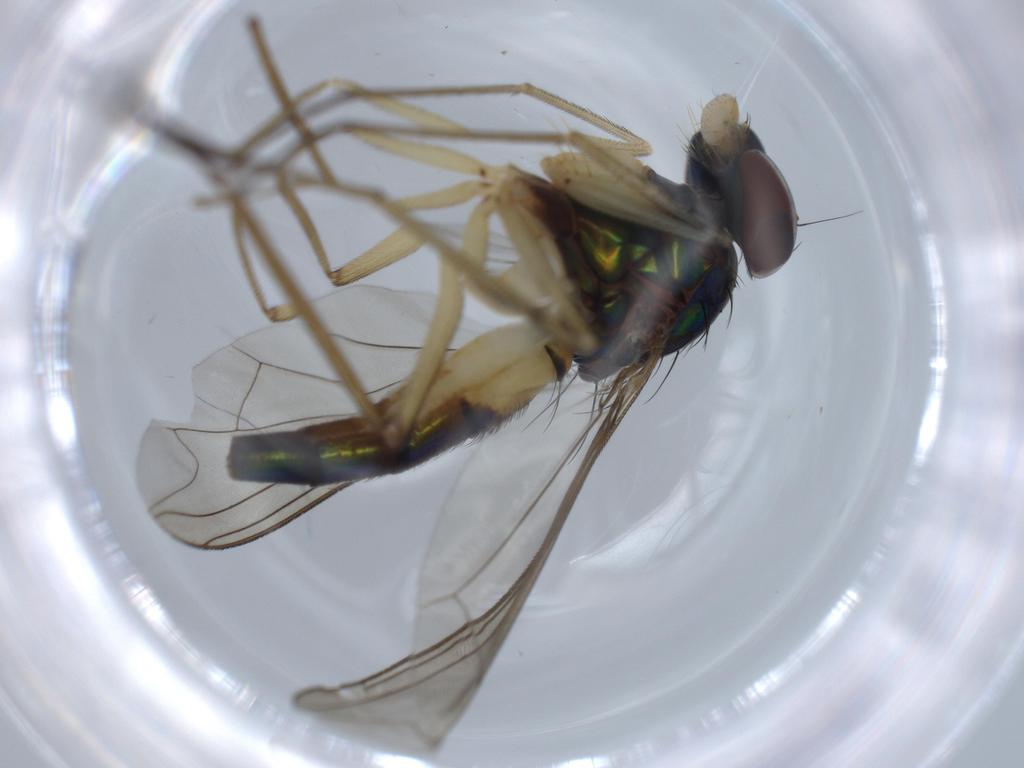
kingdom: Animalia
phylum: Arthropoda
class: Insecta
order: Diptera
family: Dolichopodidae
